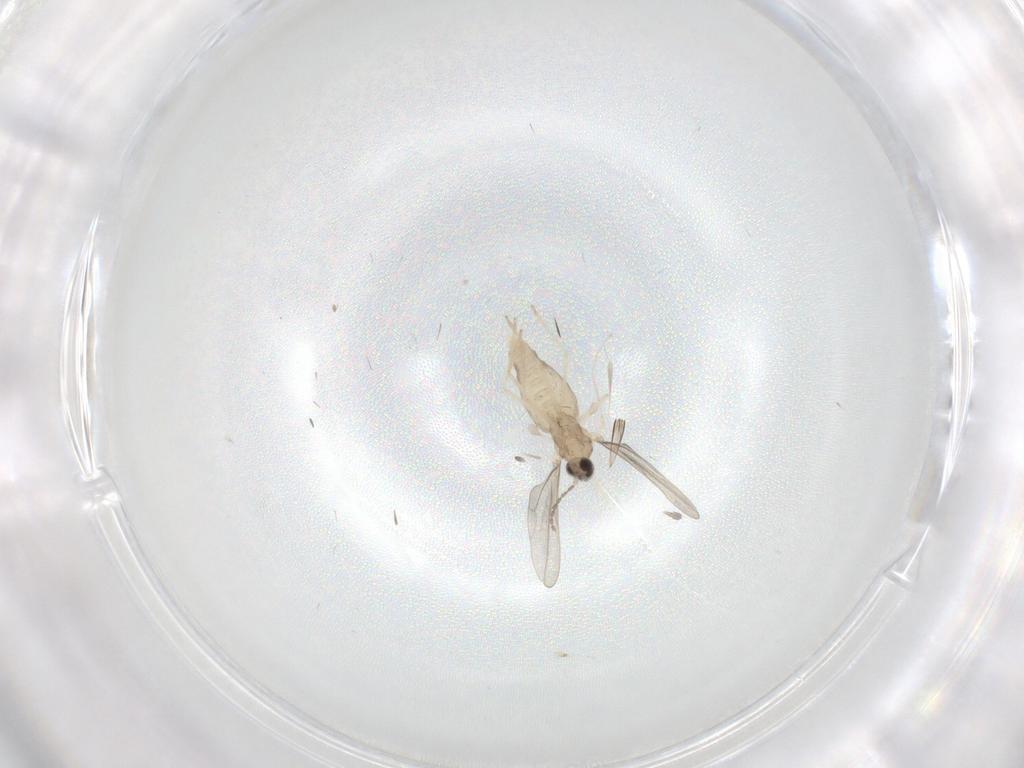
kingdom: Animalia
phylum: Arthropoda
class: Insecta
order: Diptera
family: Cecidomyiidae
